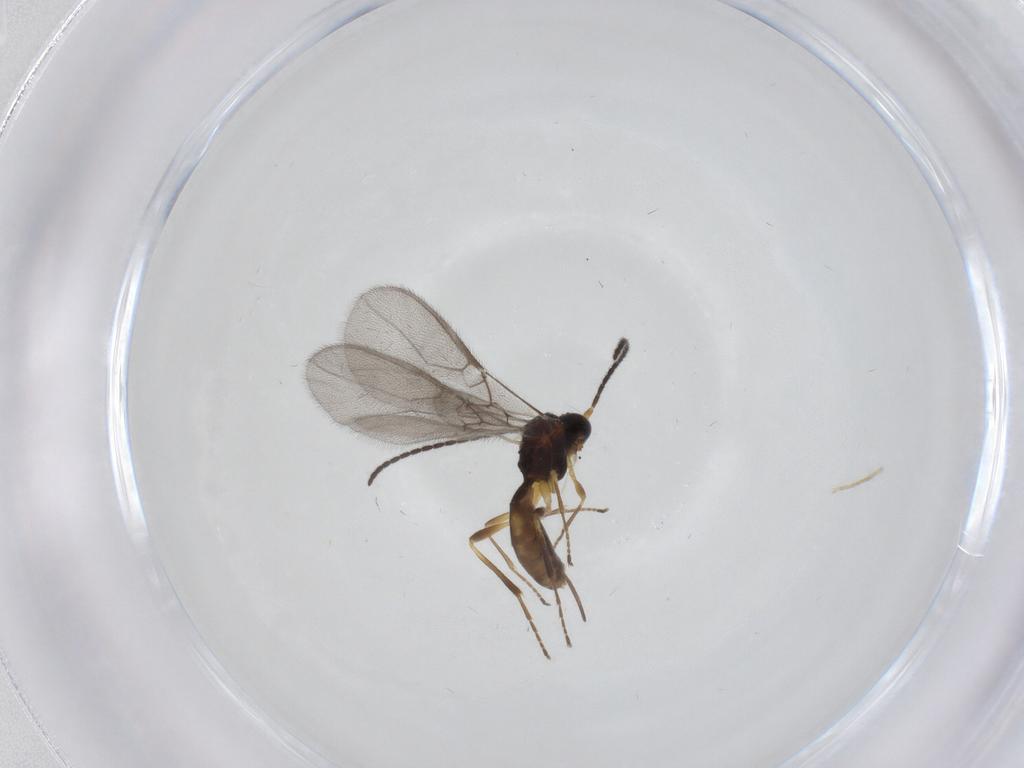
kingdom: Animalia
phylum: Arthropoda
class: Insecta
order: Hymenoptera
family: Braconidae
